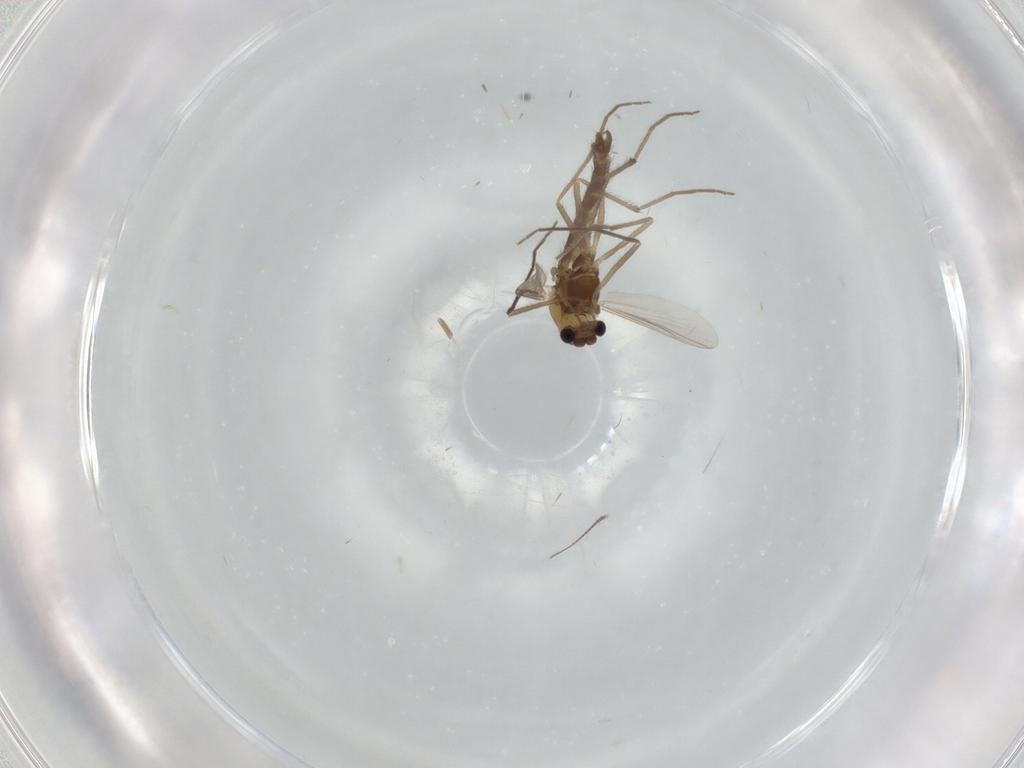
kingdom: Animalia
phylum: Arthropoda
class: Insecta
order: Diptera
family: Chironomidae
